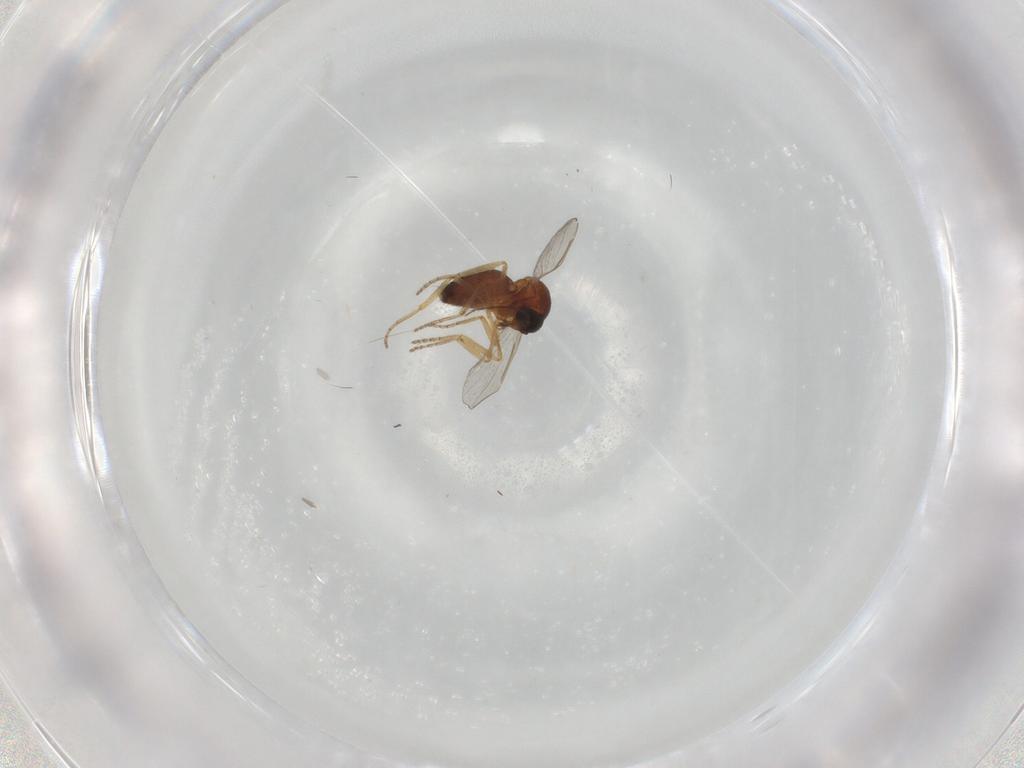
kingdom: Animalia
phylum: Arthropoda
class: Insecta
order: Diptera
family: Ceratopogonidae
